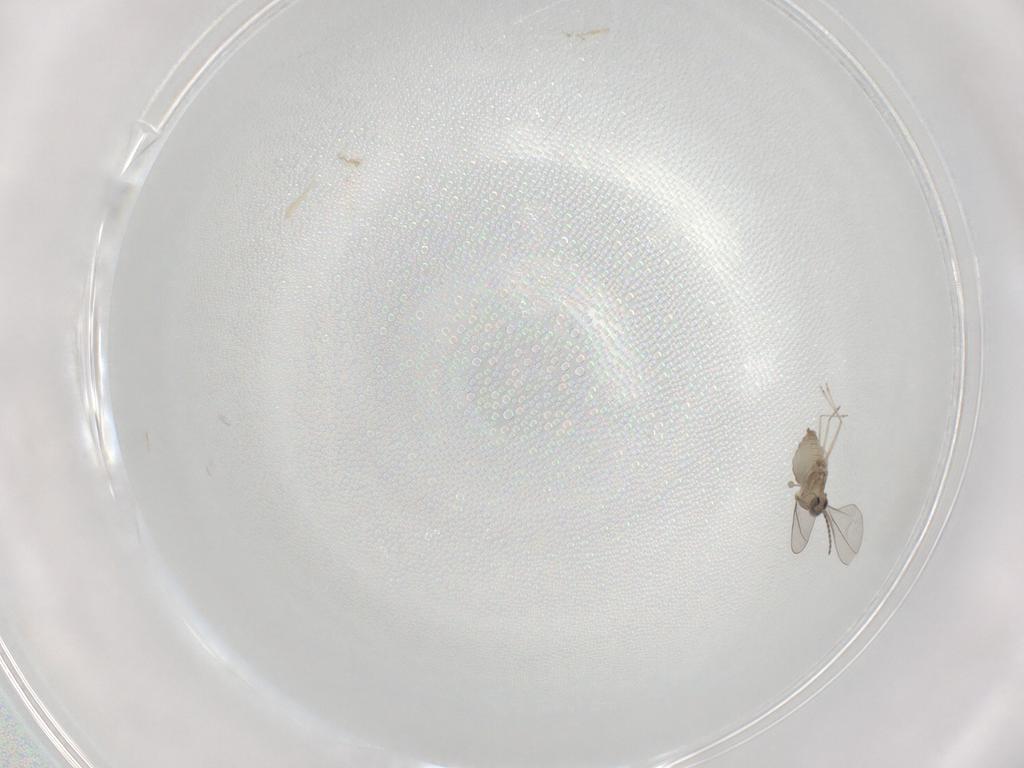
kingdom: Animalia
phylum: Arthropoda
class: Insecta
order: Diptera
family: Cecidomyiidae
